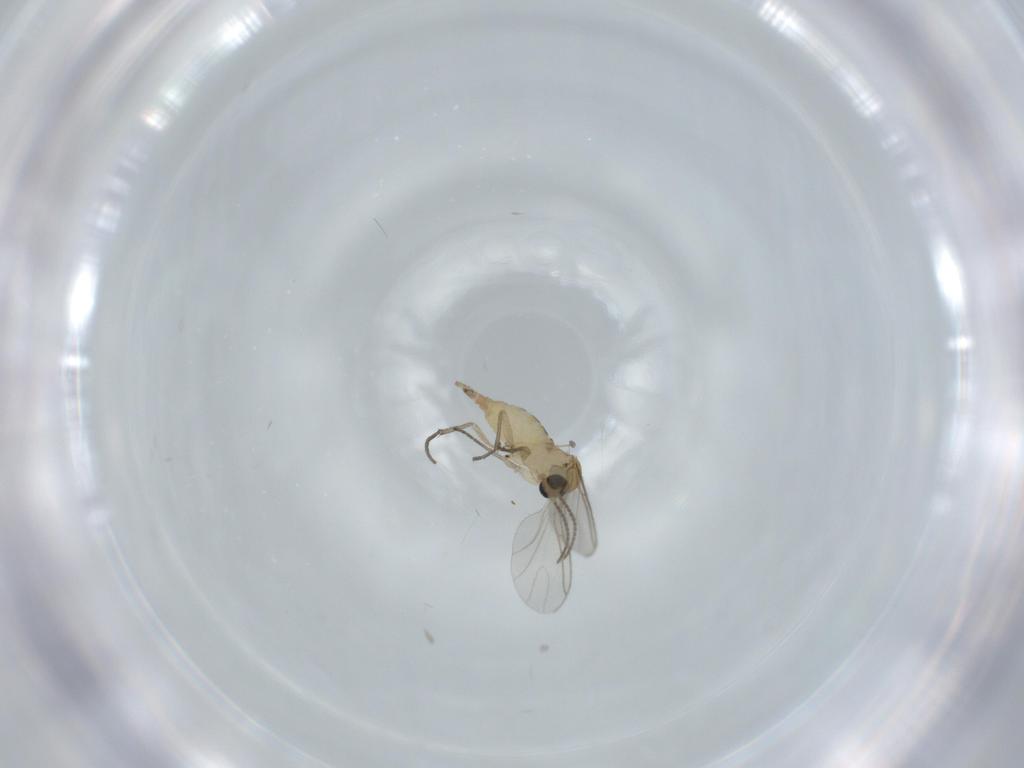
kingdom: Animalia
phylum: Arthropoda
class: Insecta
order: Diptera
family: Sciaridae
